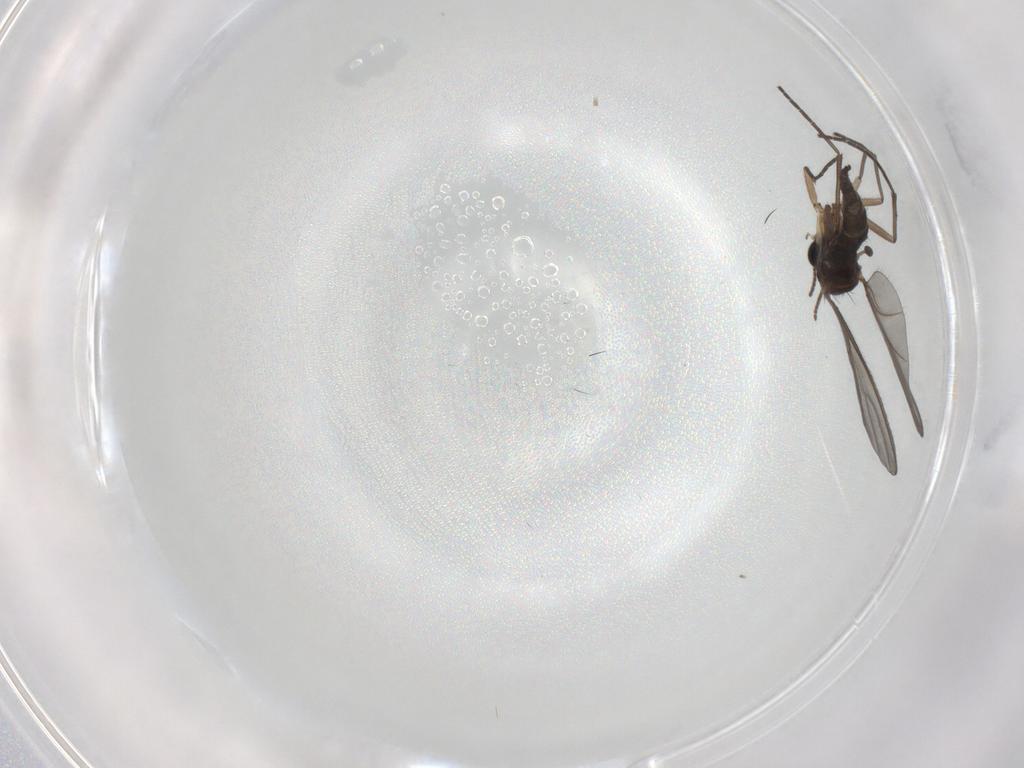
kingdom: Animalia
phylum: Arthropoda
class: Insecta
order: Diptera
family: Sciaridae
